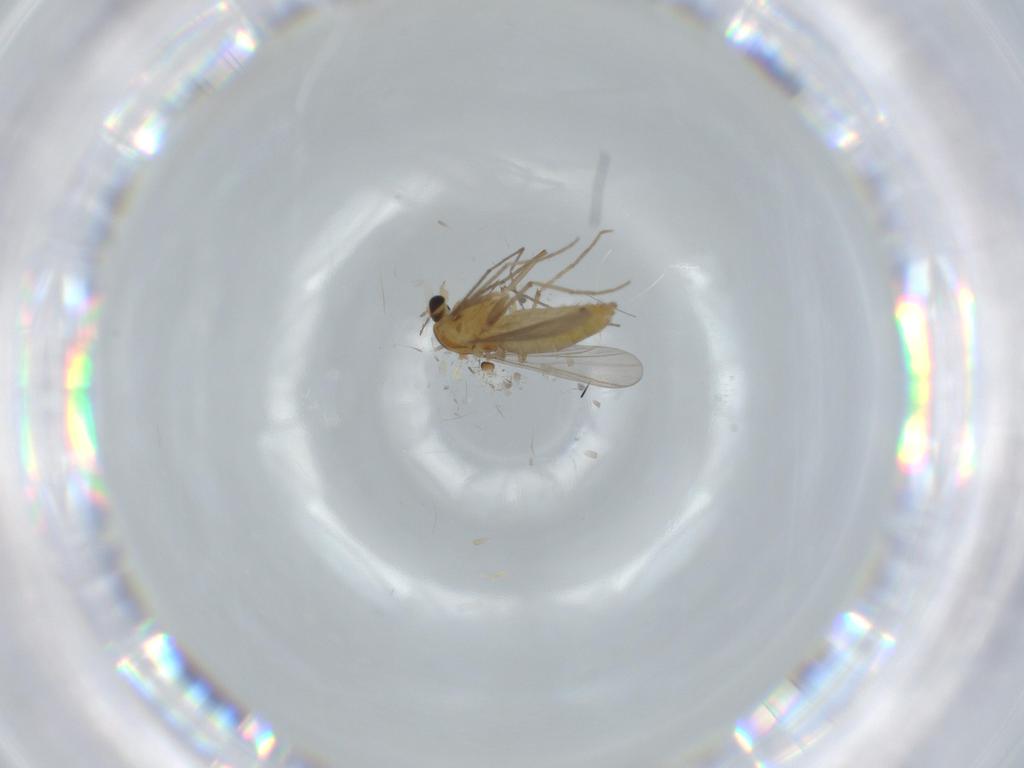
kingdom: Animalia
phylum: Arthropoda
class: Insecta
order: Diptera
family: Chironomidae
